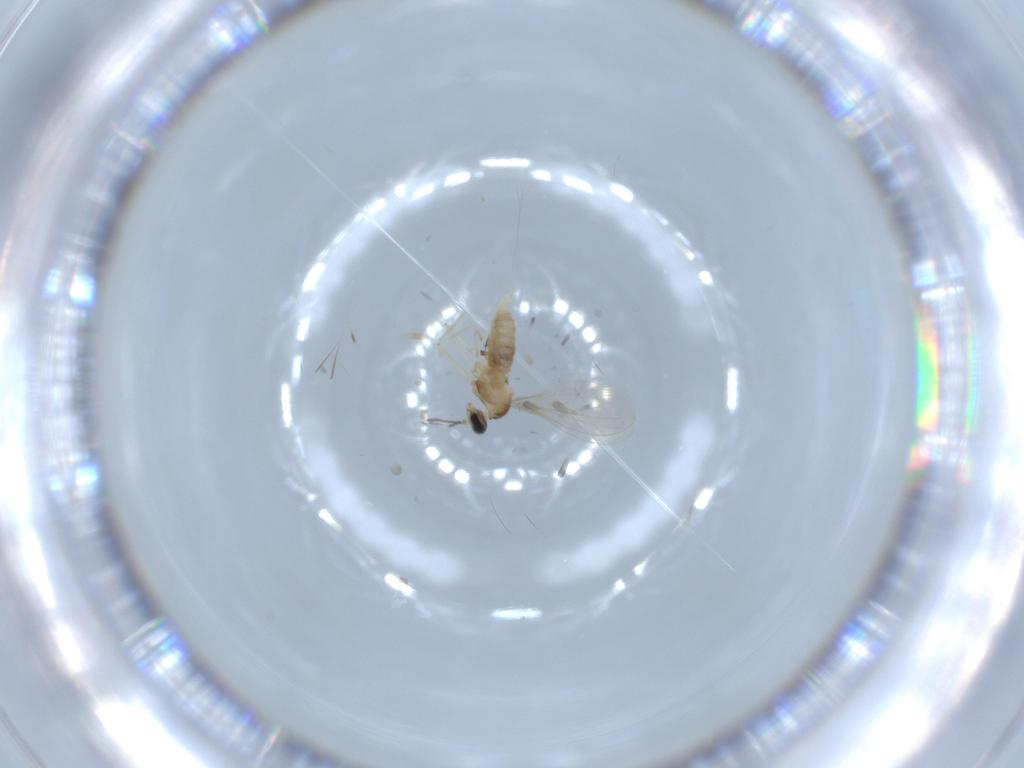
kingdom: Animalia
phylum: Arthropoda
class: Insecta
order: Diptera
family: Cecidomyiidae
